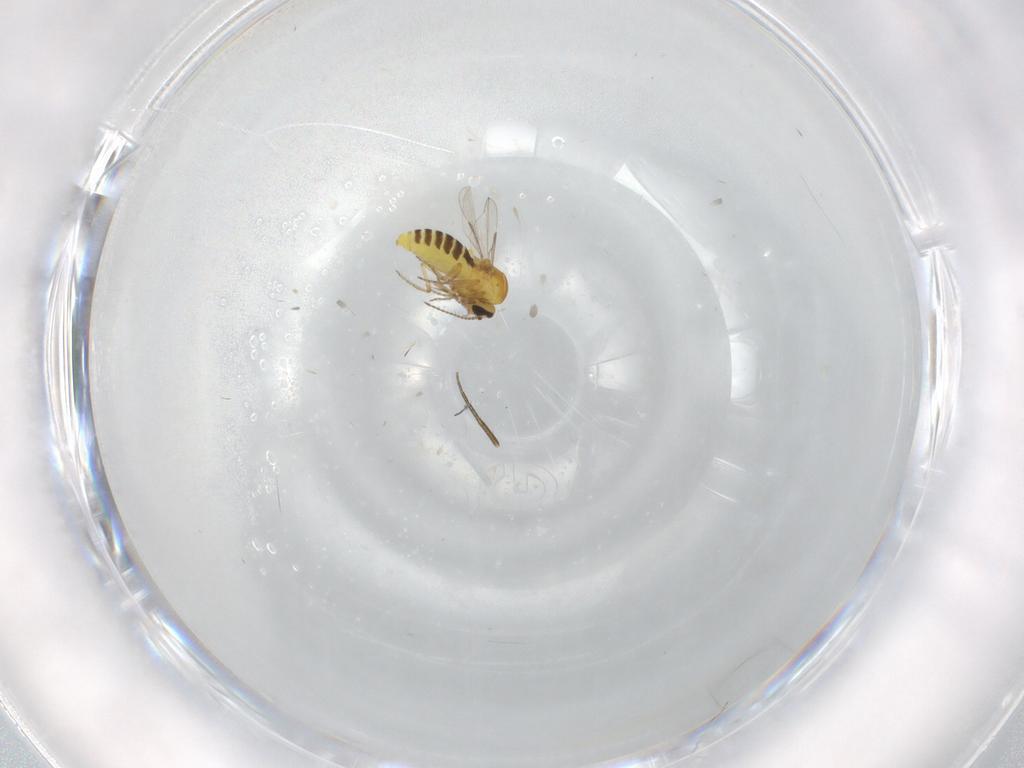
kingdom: Animalia
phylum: Arthropoda
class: Insecta
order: Diptera
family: Ceratopogonidae
